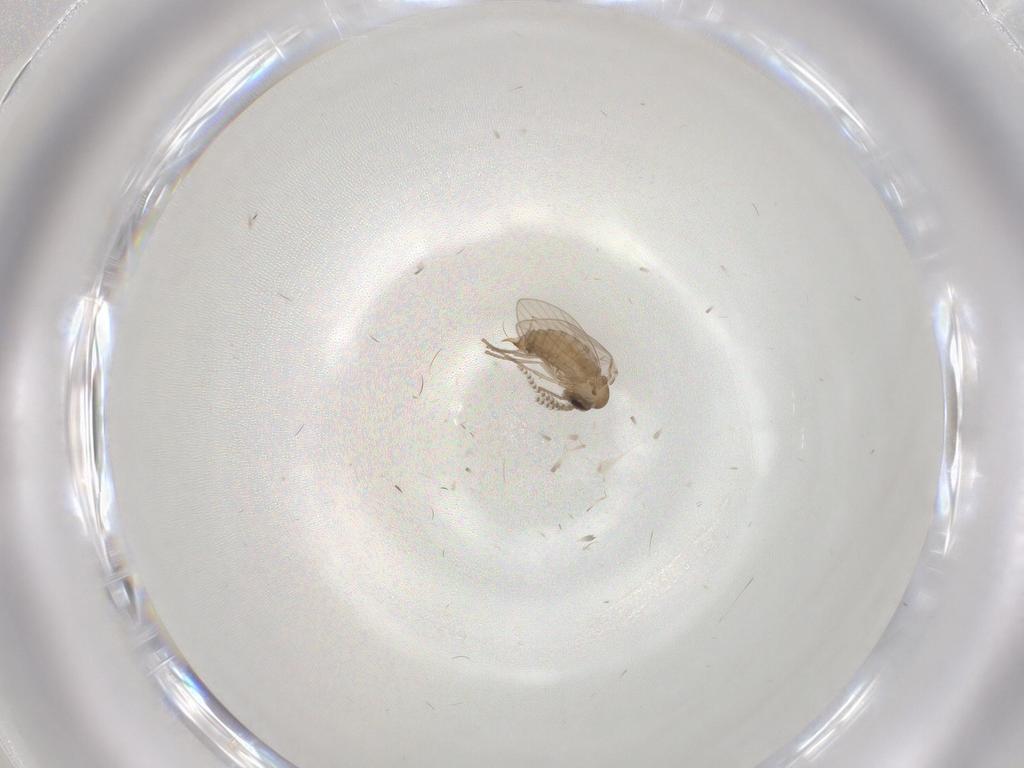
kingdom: Animalia
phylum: Arthropoda
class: Insecta
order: Diptera
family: Psychodidae
